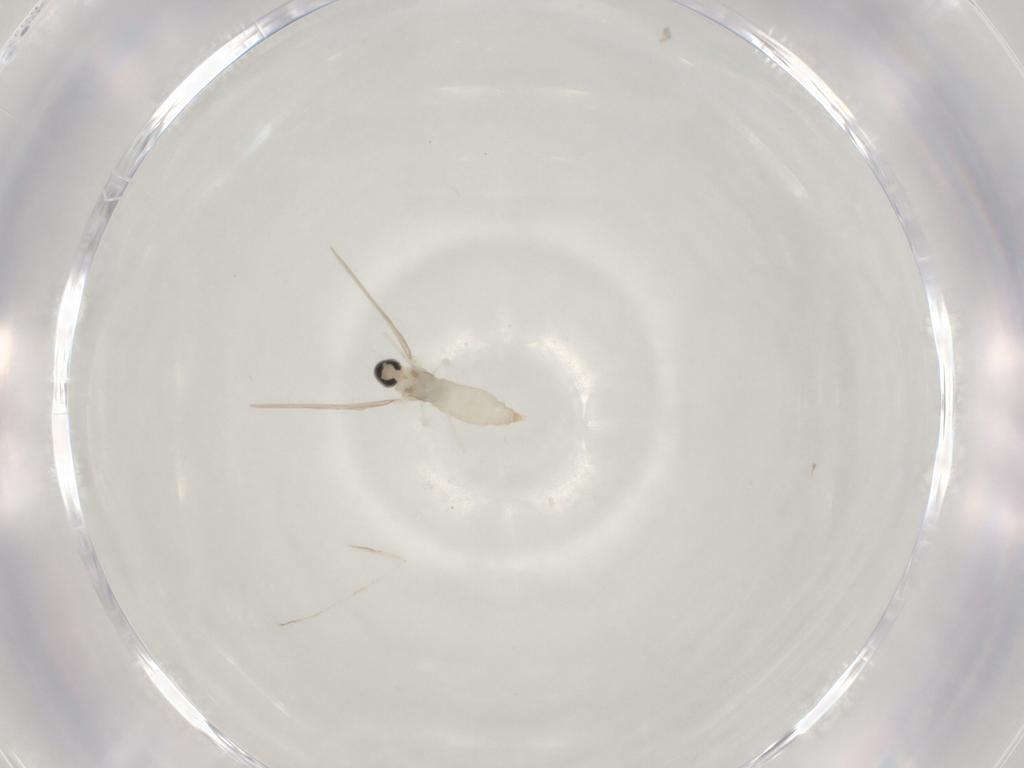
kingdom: Animalia
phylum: Arthropoda
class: Insecta
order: Diptera
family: Cecidomyiidae
